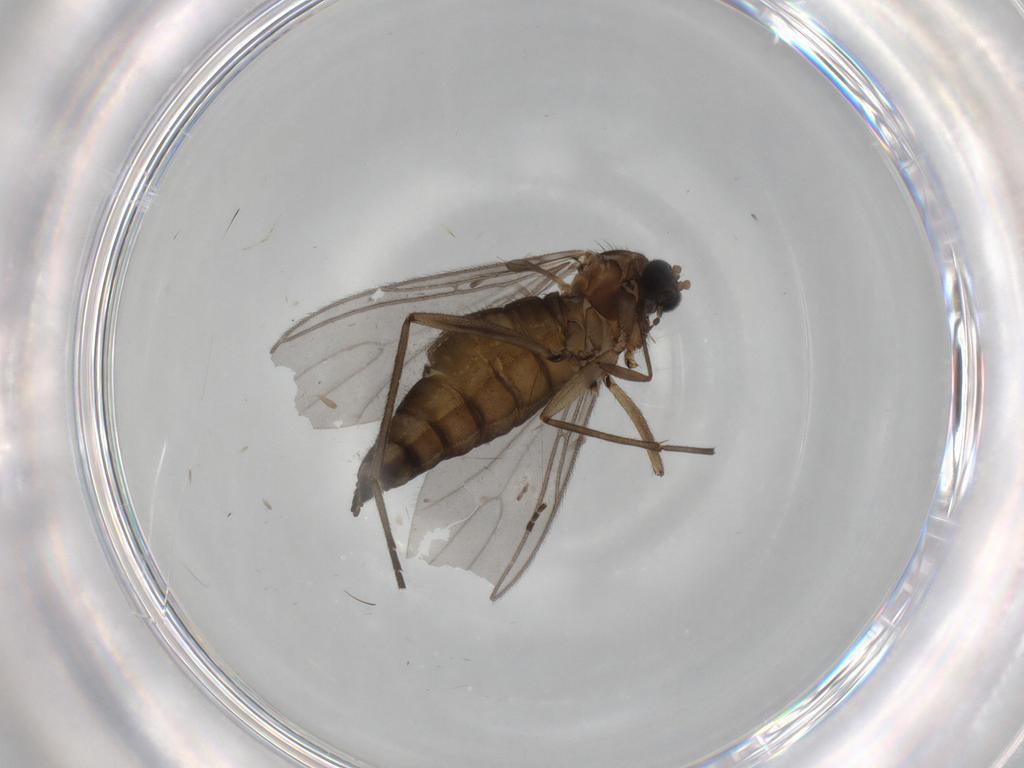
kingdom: Animalia
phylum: Arthropoda
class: Insecta
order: Diptera
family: Sciaridae
